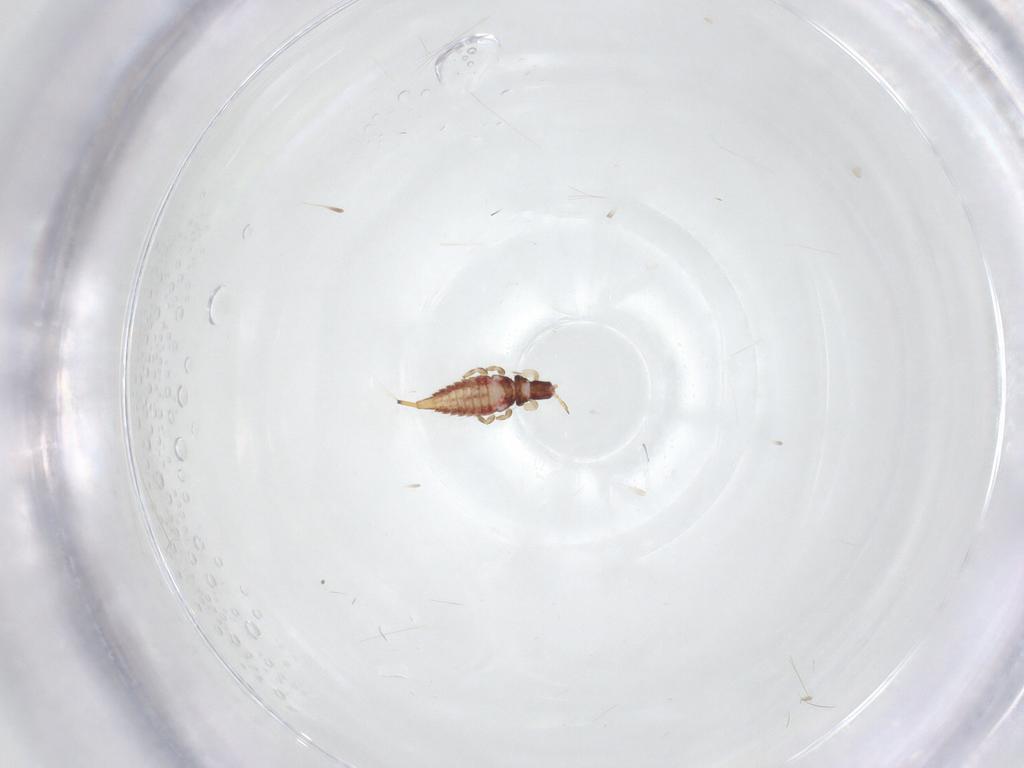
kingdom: Animalia
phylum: Arthropoda
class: Insecta
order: Thysanoptera
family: Phlaeothripidae
